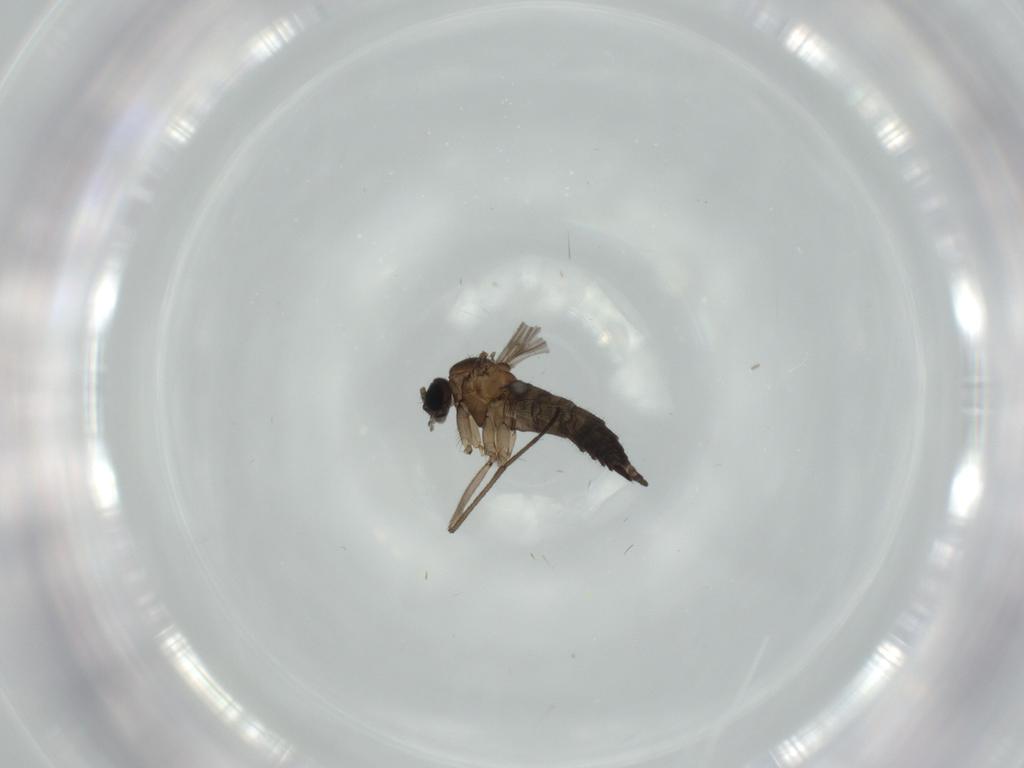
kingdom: Animalia
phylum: Arthropoda
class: Insecta
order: Diptera
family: Sciaridae
